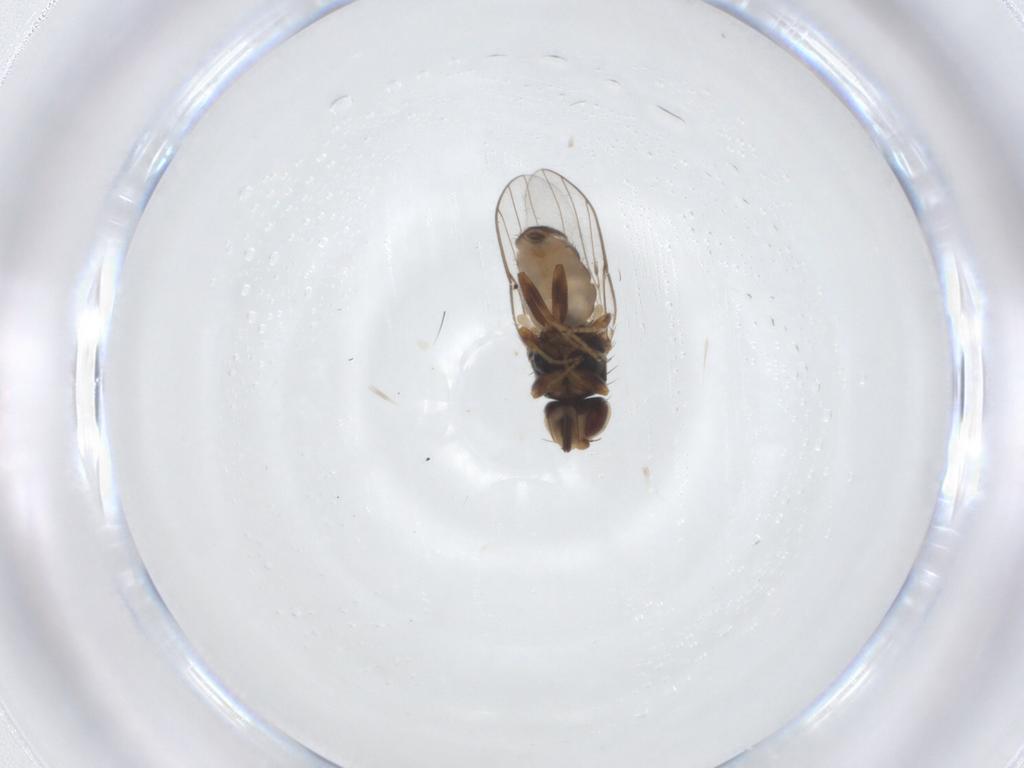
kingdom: Animalia
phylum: Arthropoda
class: Insecta
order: Diptera
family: Chloropidae
